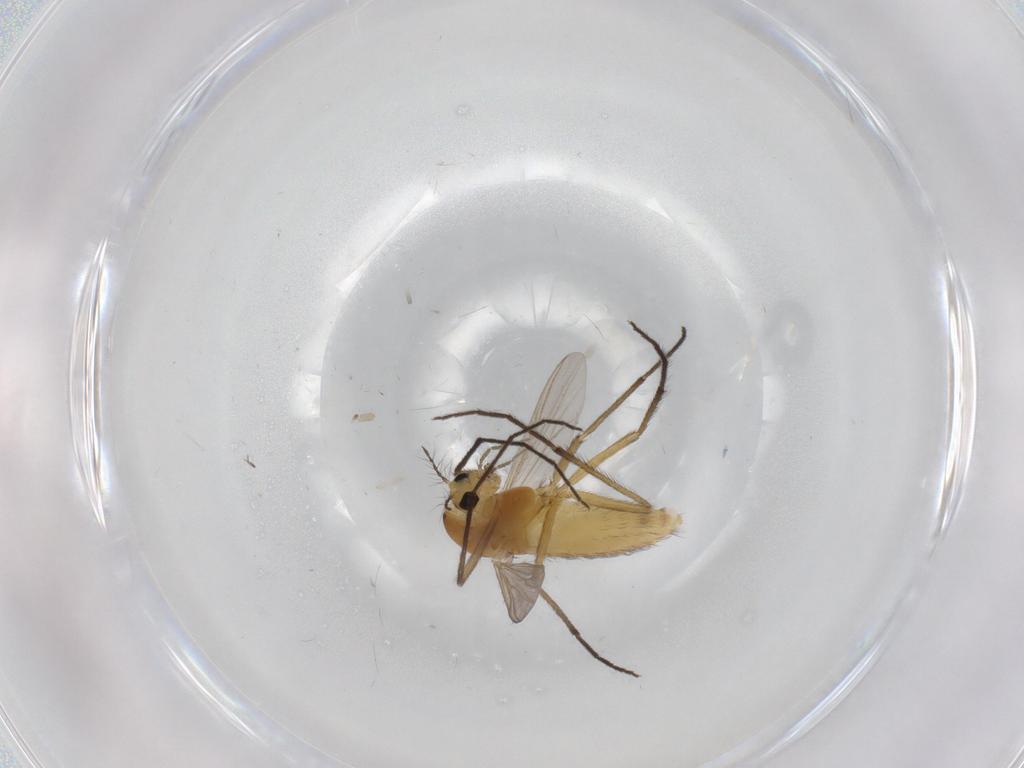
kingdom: Animalia
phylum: Arthropoda
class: Insecta
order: Diptera
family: Chironomidae
